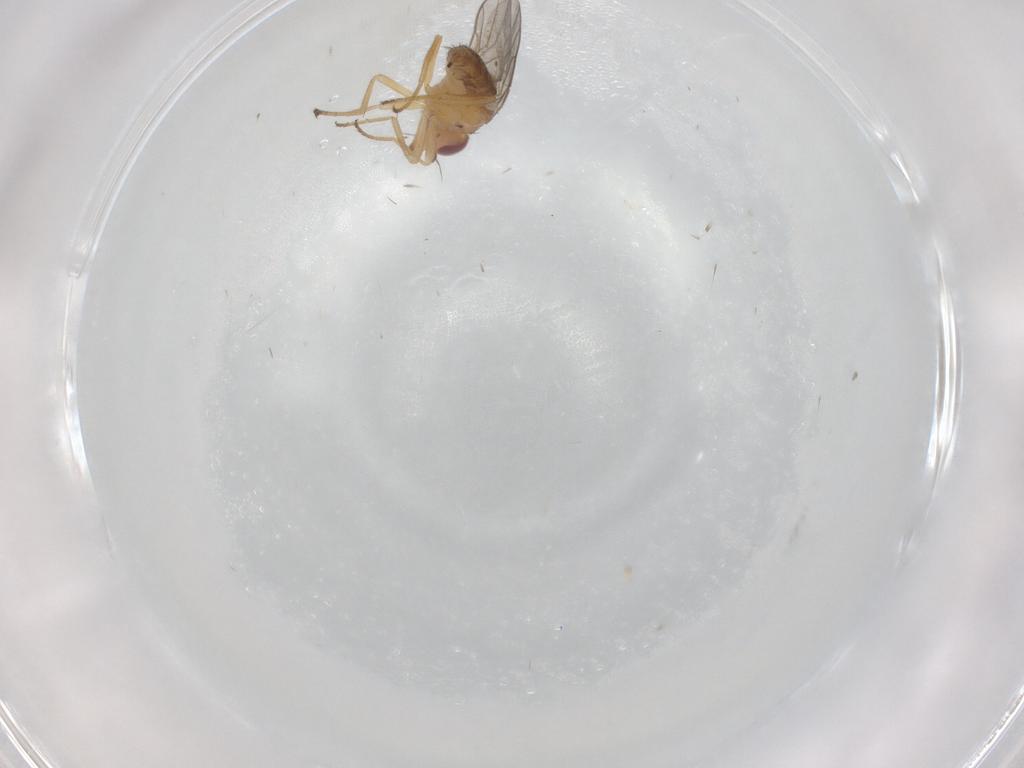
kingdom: Animalia
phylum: Arthropoda
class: Insecta
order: Diptera
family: Chloropidae
